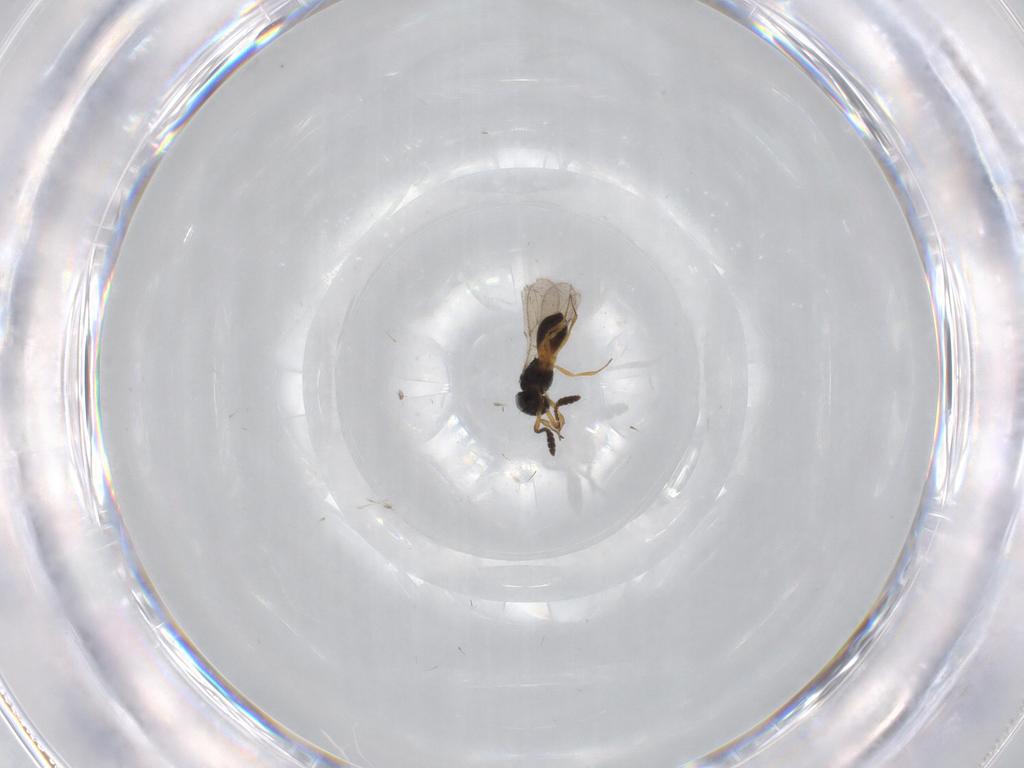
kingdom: Animalia
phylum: Arthropoda
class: Insecta
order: Hymenoptera
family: Scelionidae
